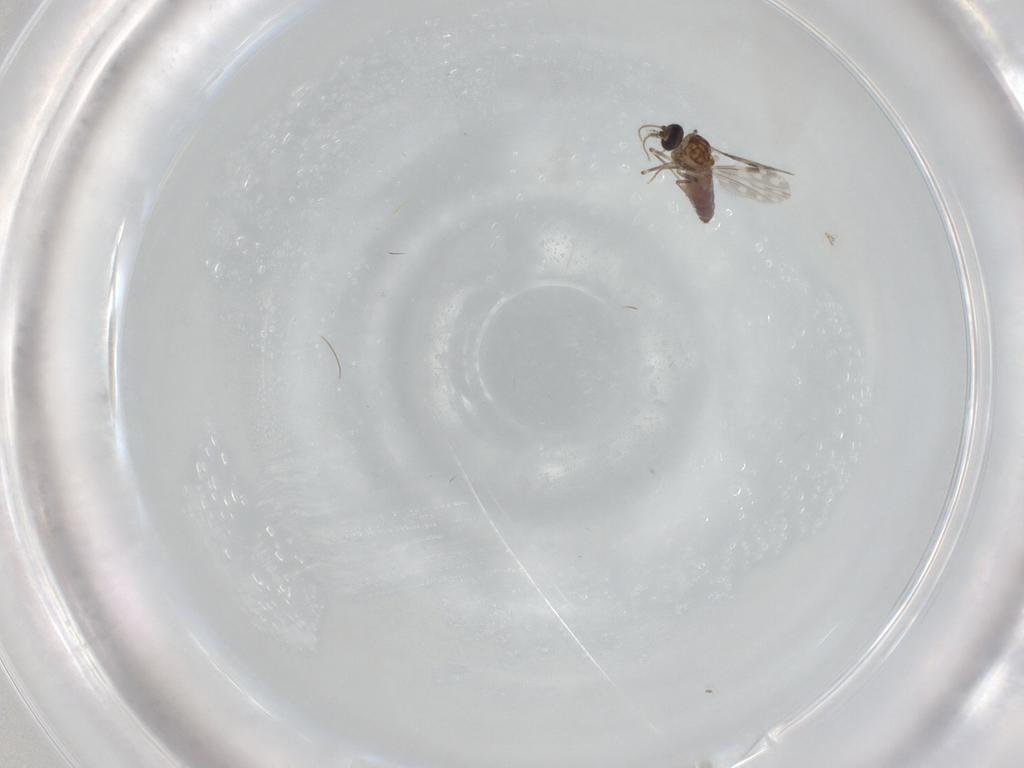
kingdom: Animalia
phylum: Arthropoda
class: Insecta
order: Diptera
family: Ceratopogonidae
